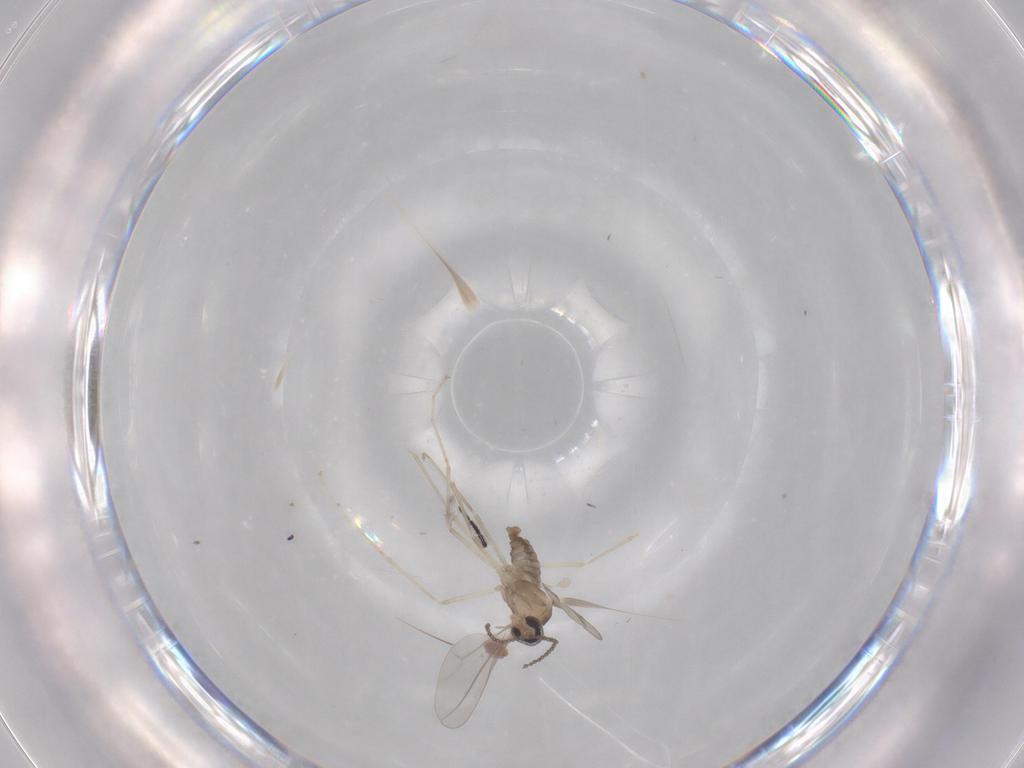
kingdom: Animalia
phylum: Arthropoda
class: Insecta
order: Diptera
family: Cecidomyiidae
